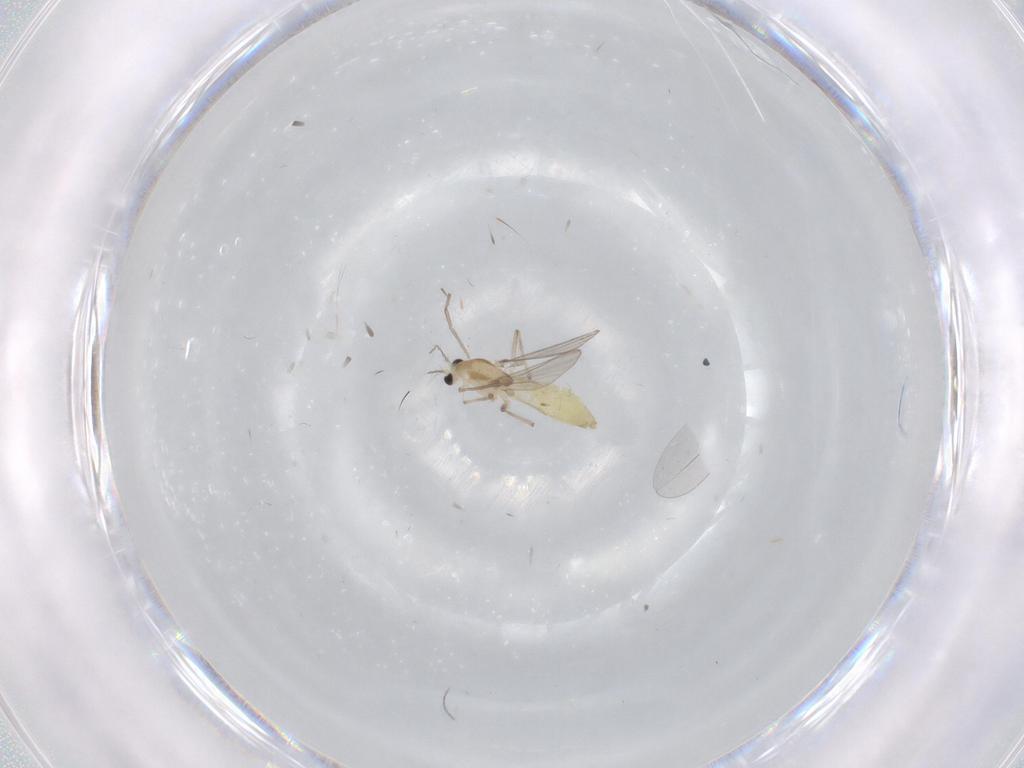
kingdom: Animalia
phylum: Arthropoda
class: Insecta
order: Diptera
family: Chironomidae
